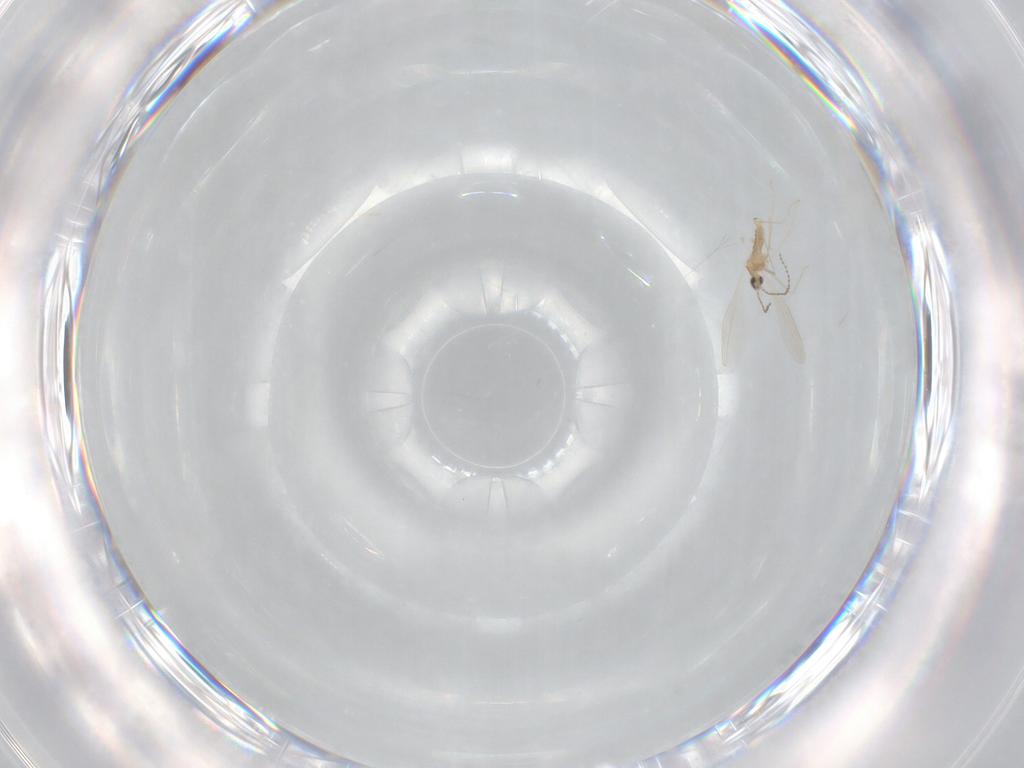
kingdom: Animalia
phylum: Arthropoda
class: Insecta
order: Diptera
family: Cecidomyiidae
